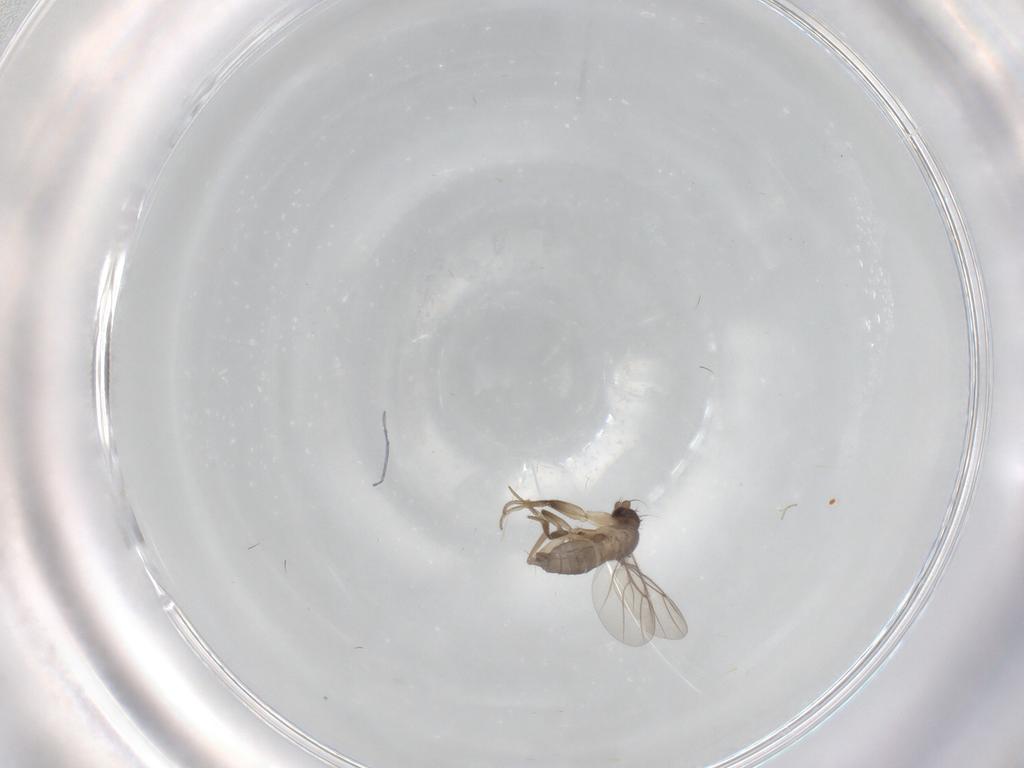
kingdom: Animalia
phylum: Arthropoda
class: Insecta
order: Diptera
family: Phoridae
